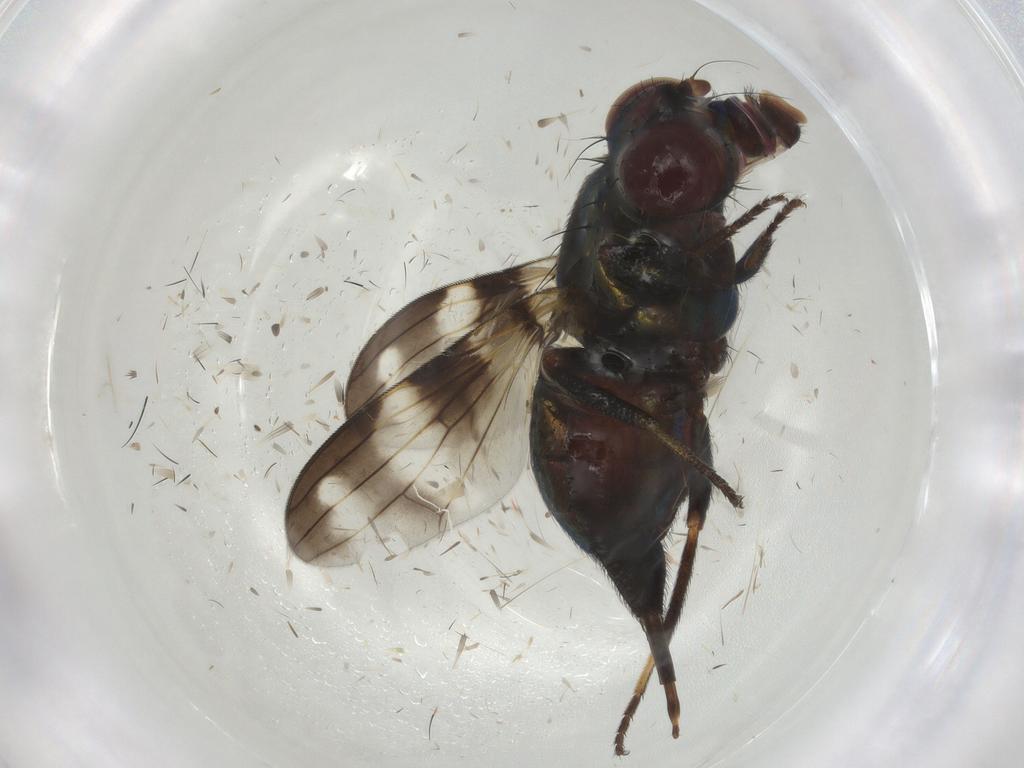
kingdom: Animalia
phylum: Arthropoda
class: Insecta
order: Diptera
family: Ulidiidae
